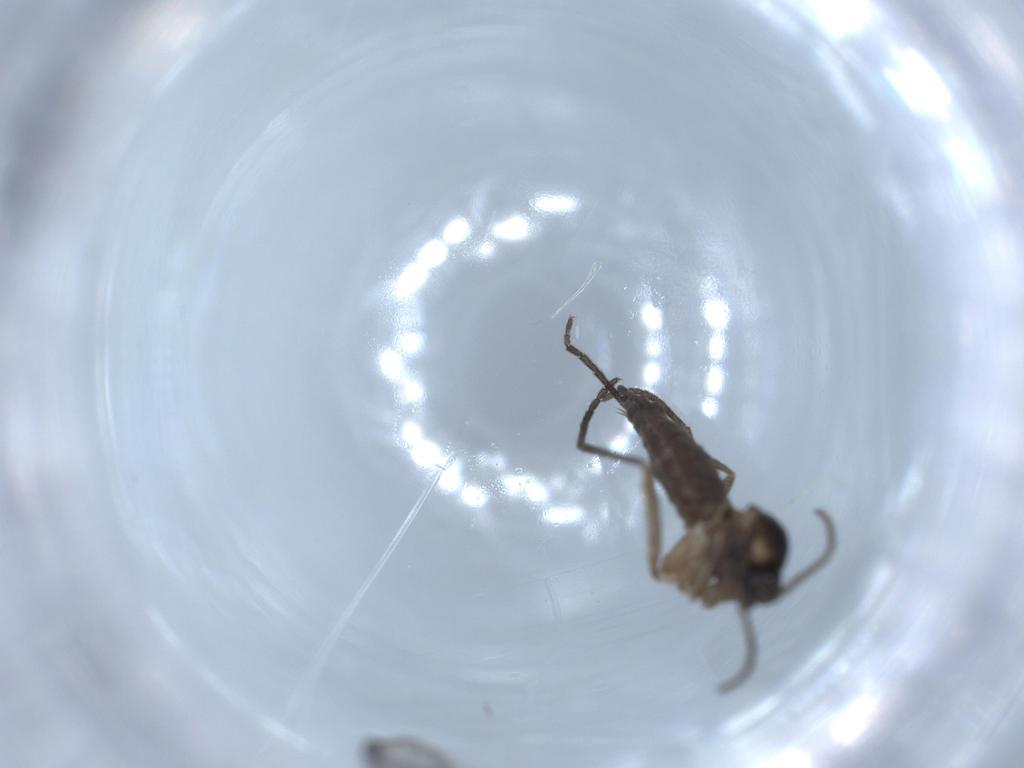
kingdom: Animalia
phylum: Arthropoda
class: Insecta
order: Diptera
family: Sciaridae
